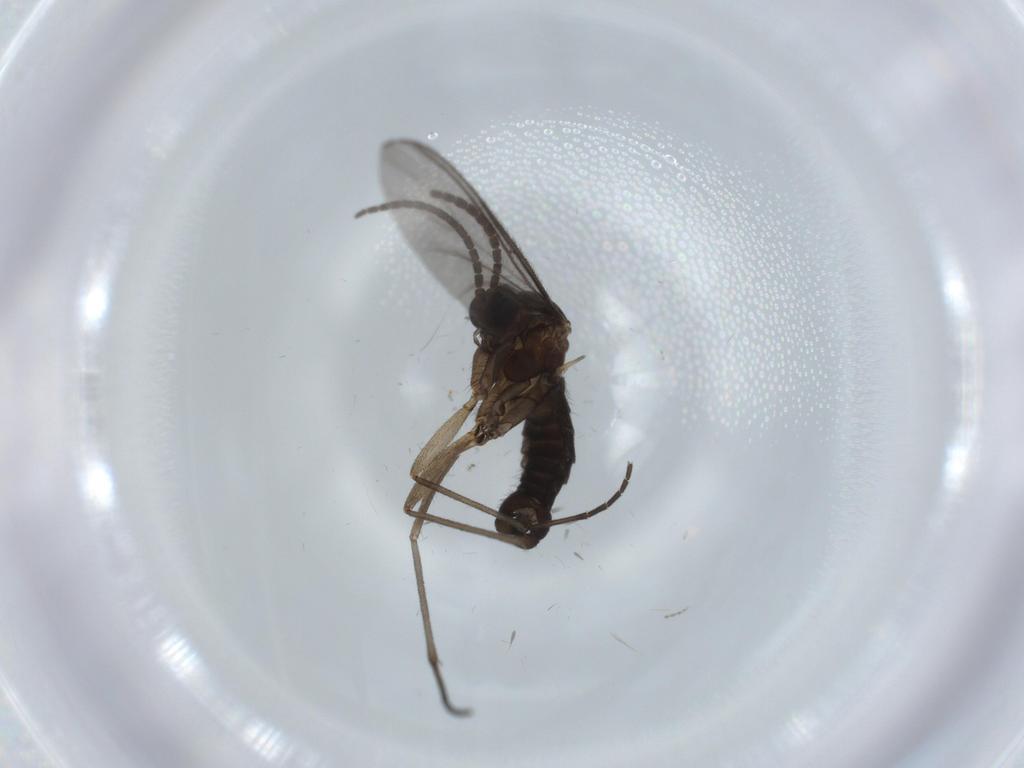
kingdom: Animalia
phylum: Arthropoda
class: Insecta
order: Diptera
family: Sciaridae
